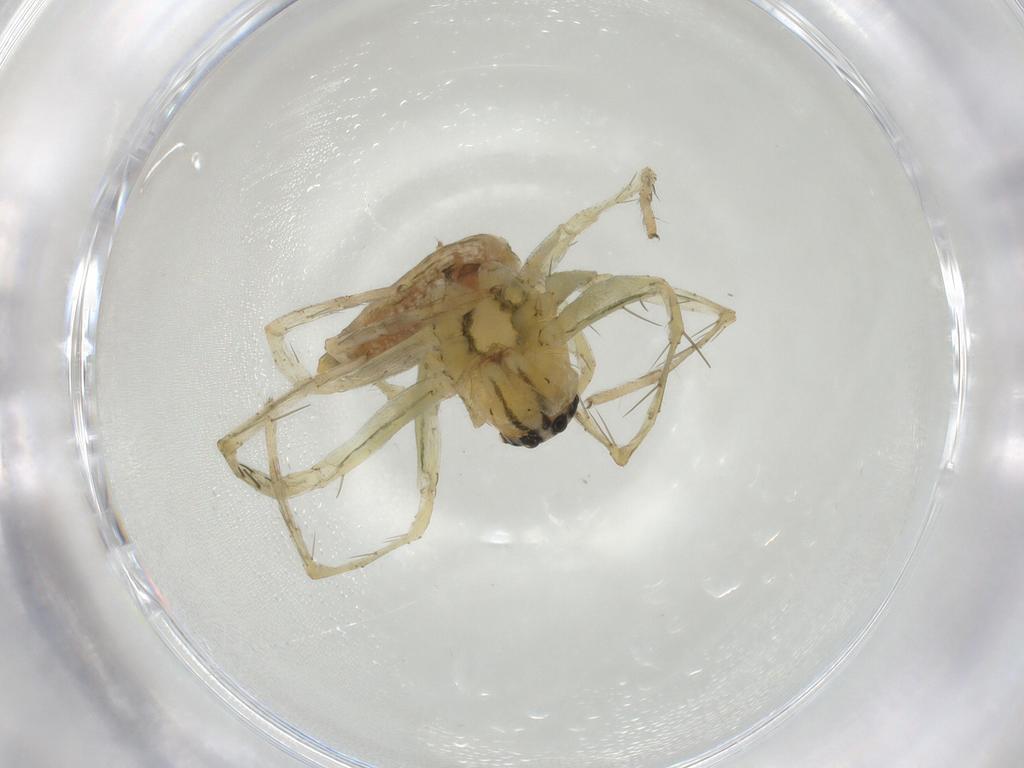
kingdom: Animalia
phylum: Arthropoda
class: Arachnida
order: Araneae
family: Oxyopidae
